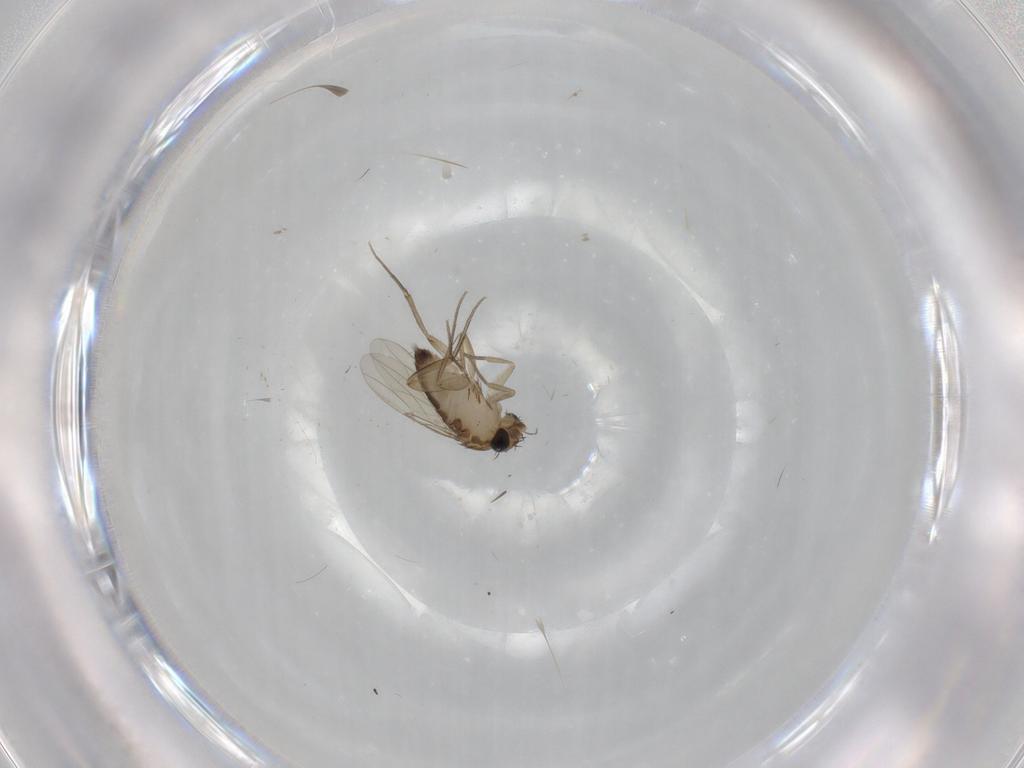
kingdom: Animalia
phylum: Arthropoda
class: Insecta
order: Diptera
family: Phoridae
